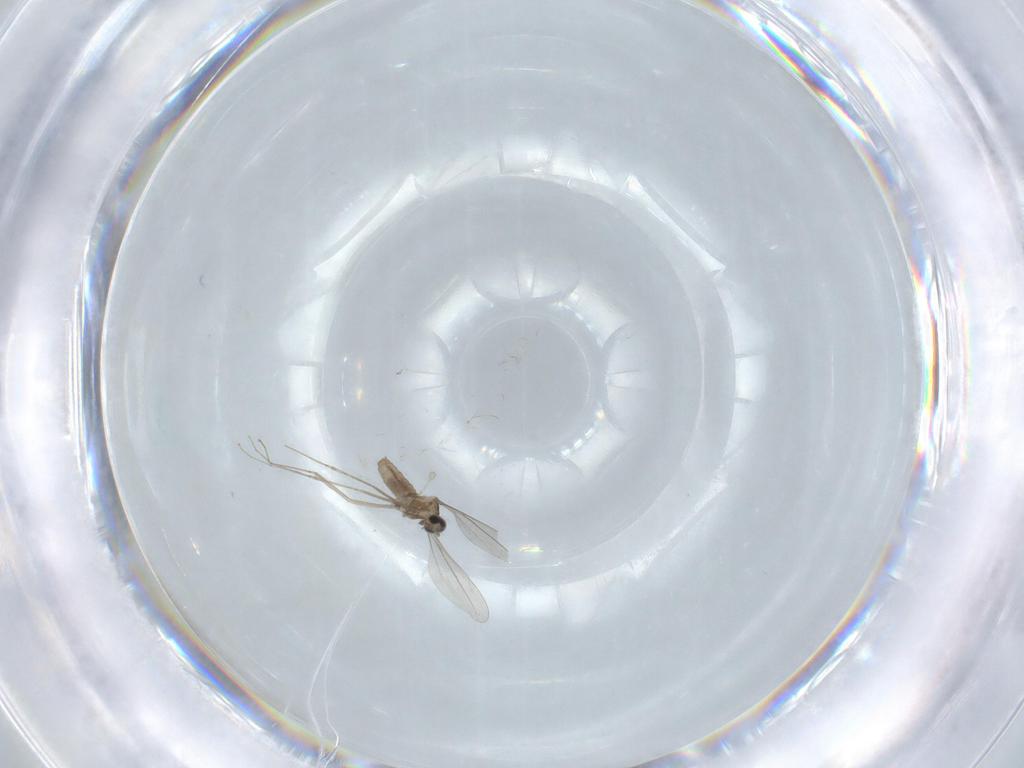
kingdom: Animalia
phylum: Arthropoda
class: Insecta
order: Diptera
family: Cecidomyiidae
